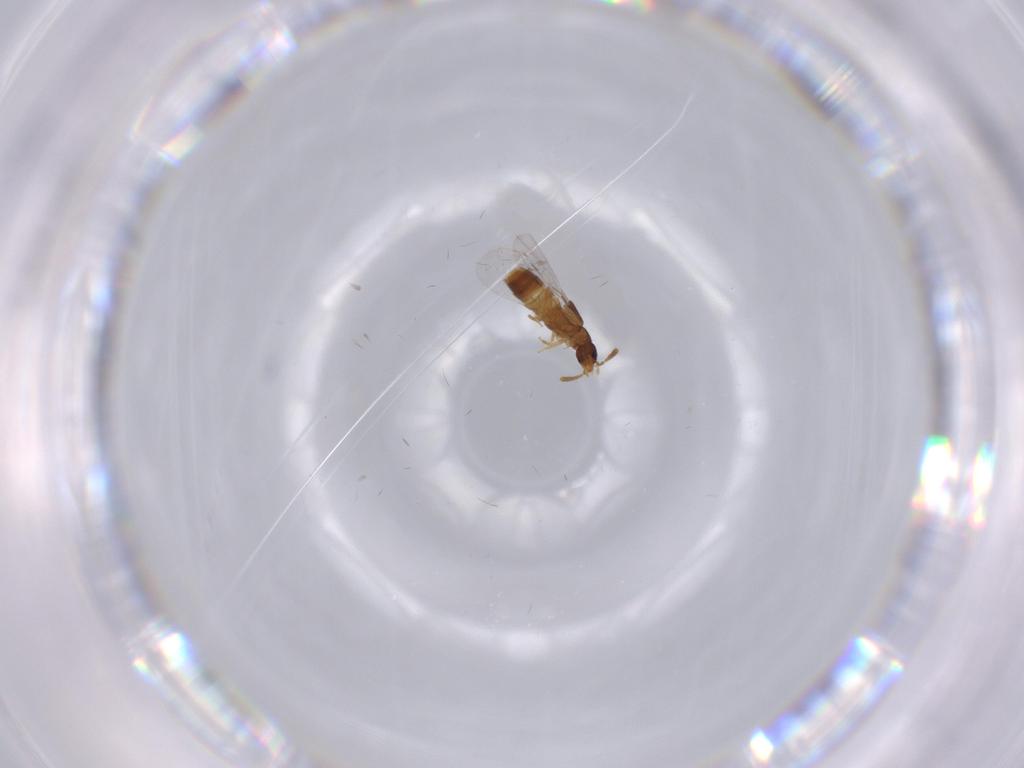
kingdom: Animalia
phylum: Arthropoda
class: Insecta
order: Coleoptera
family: Staphylinidae
